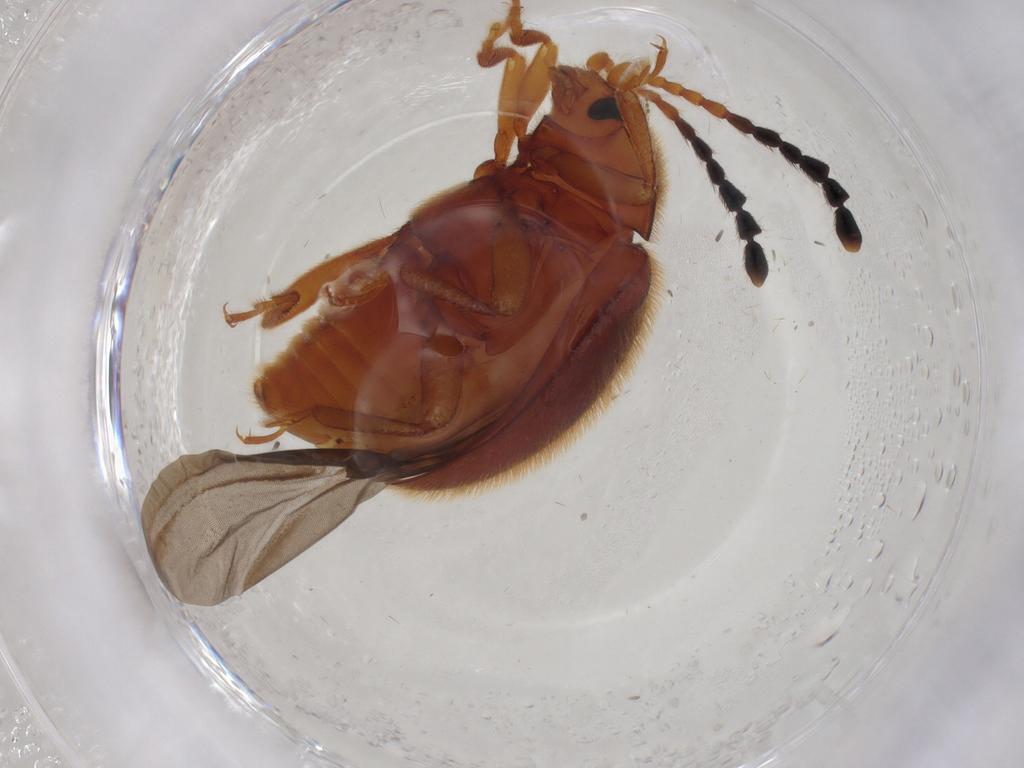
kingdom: Animalia
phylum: Arthropoda
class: Insecta
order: Coleoptera
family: Endomychidae
